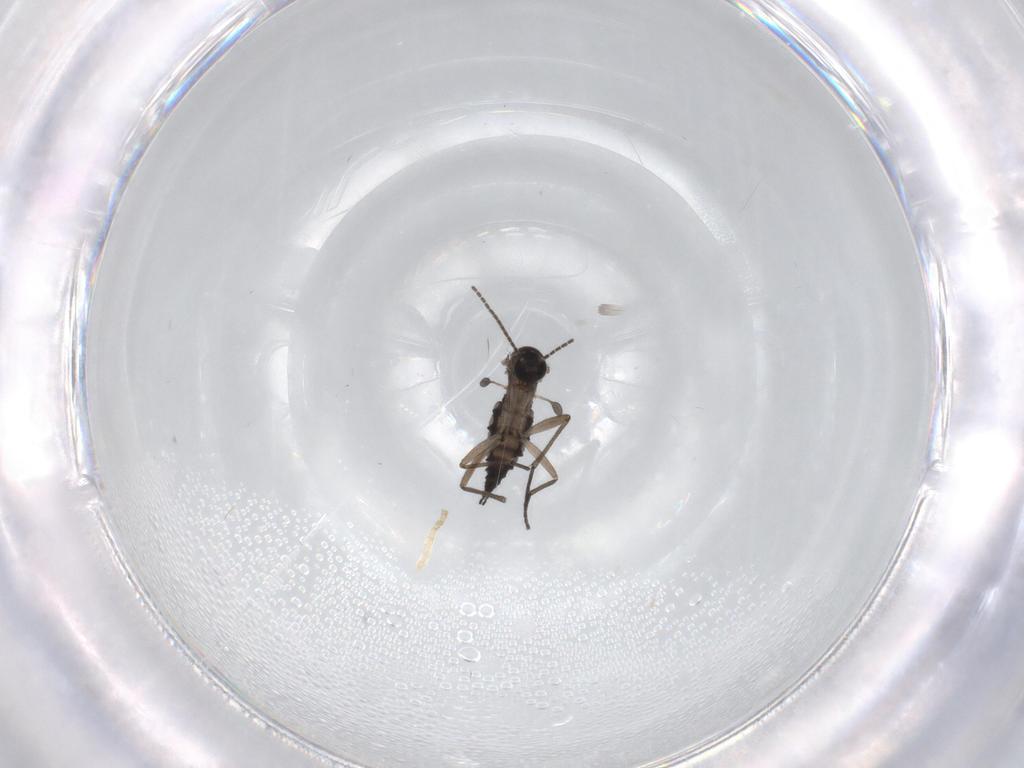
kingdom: Animalia
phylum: Arthropoda
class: Insecta
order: Diptera
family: Sciaridae
